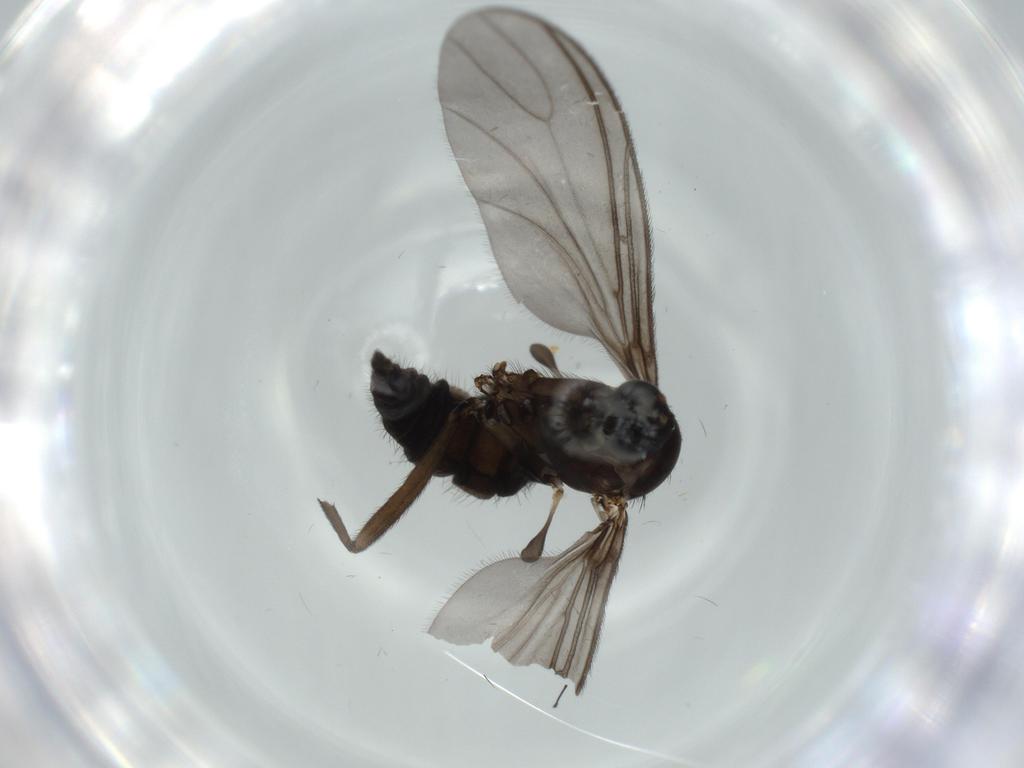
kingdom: Animalia
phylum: Arthropoda
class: Insecta
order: Diptera
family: Sciaridae
